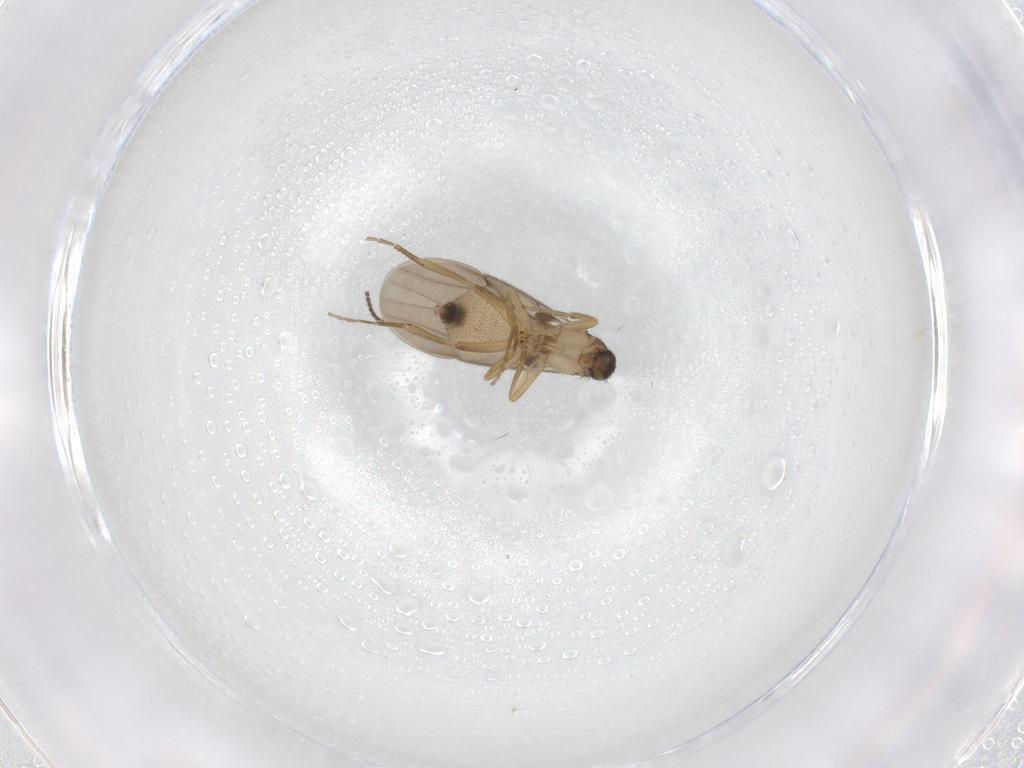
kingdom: Animalia
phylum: Arthropoda
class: Insecta
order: Diptera
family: Phoridae
